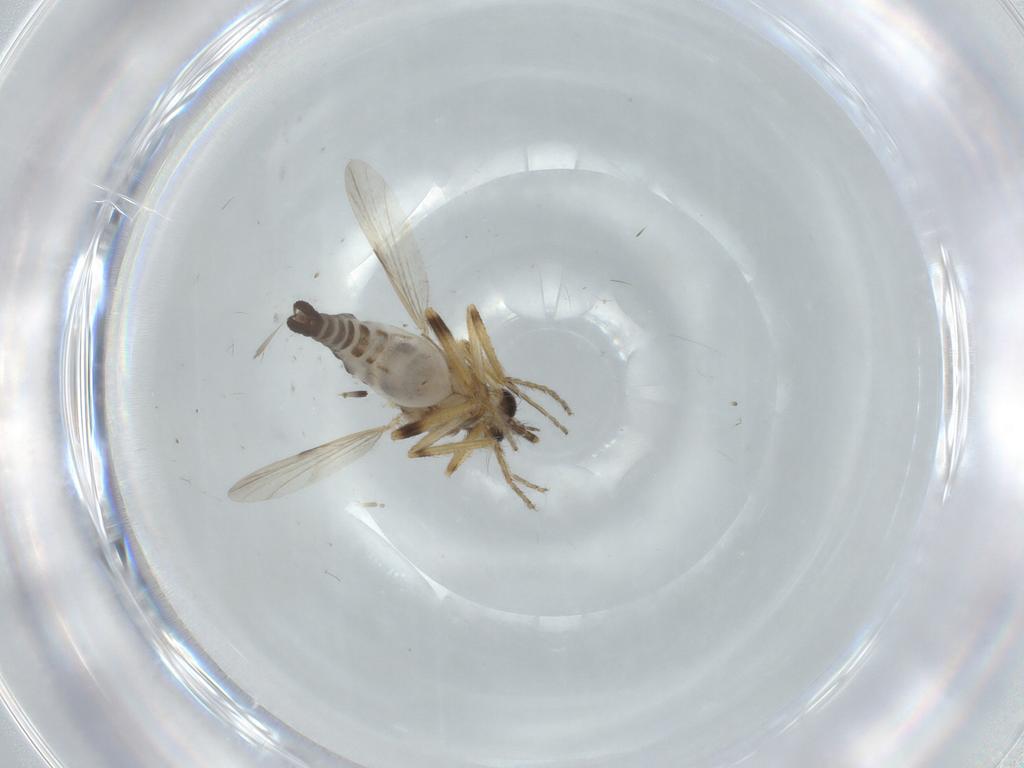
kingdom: Animalia
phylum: Arthropoda
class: Insecta
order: Diptera
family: Ceratopogonidae
